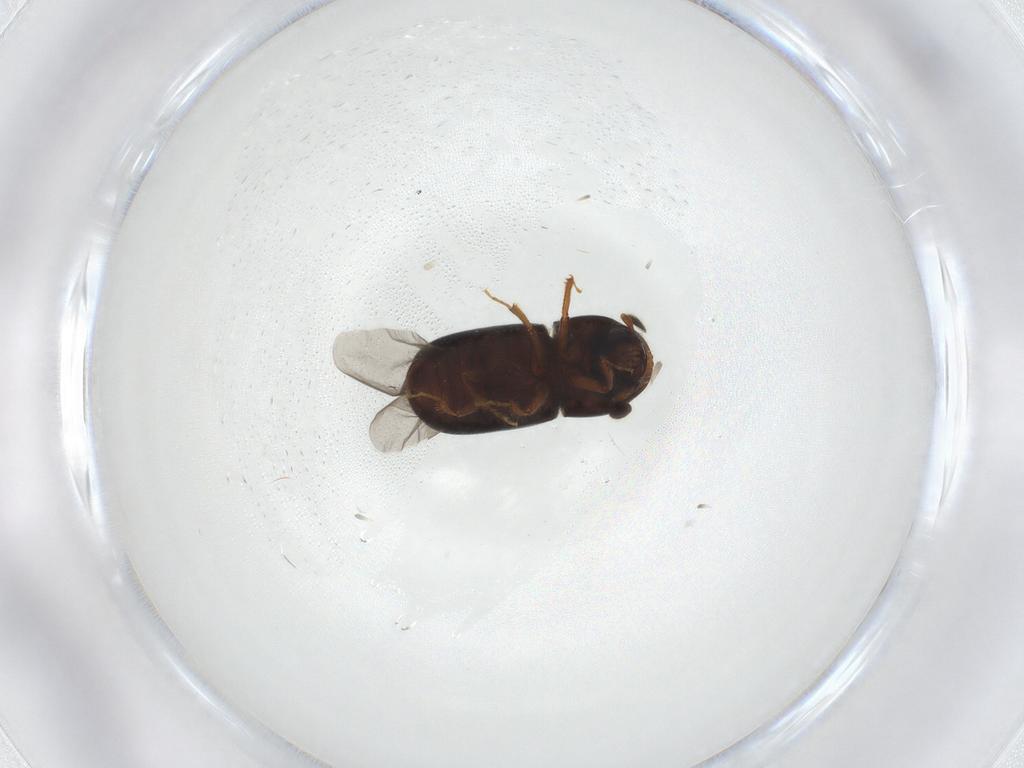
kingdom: Animalia
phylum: Arthropoda
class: Insecta
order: Coleoptera
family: Curculionidae
